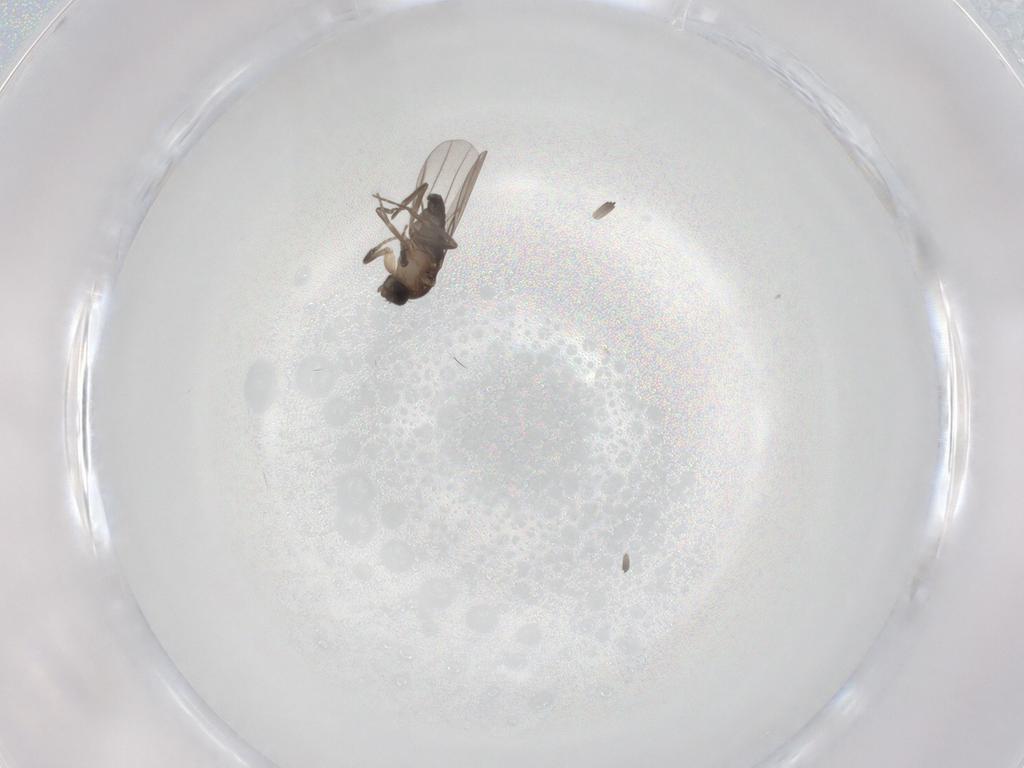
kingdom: Animalia
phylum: Arthropoda
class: Insecta
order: Diptera
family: Phoridae
